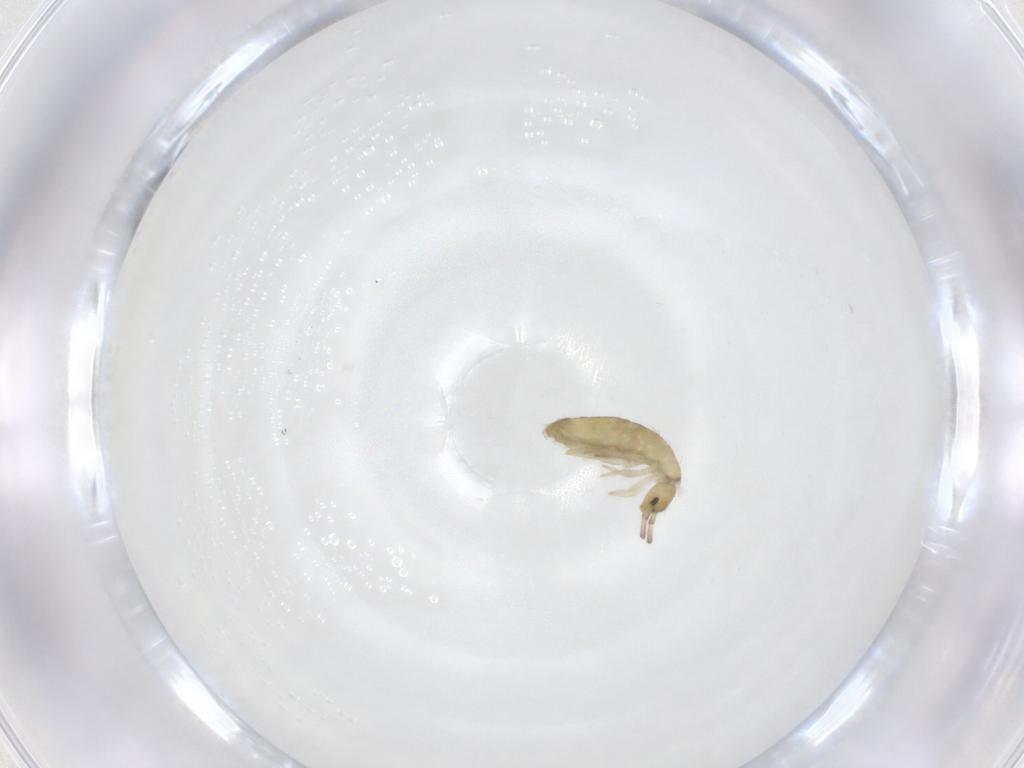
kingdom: Animalia
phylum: Arthropoda
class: Collembola
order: Entomobryomorpha
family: Entomobryidae
